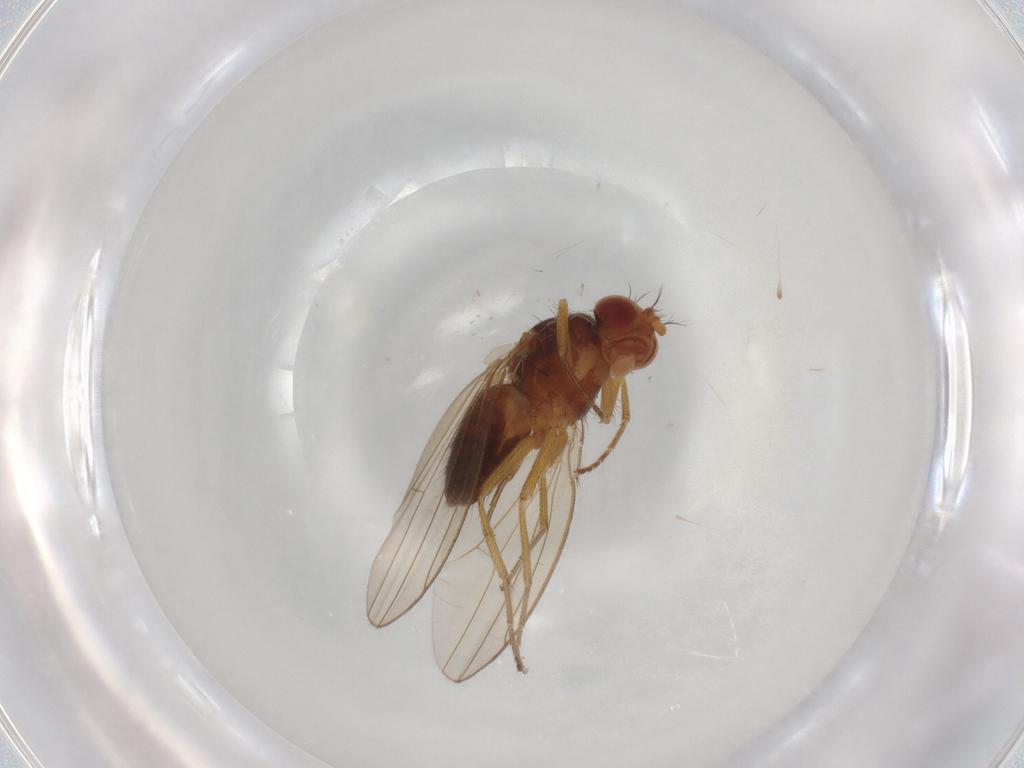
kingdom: Animalia
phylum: Arthropoda
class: Insecta
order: Diptera
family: Drosophilidae
